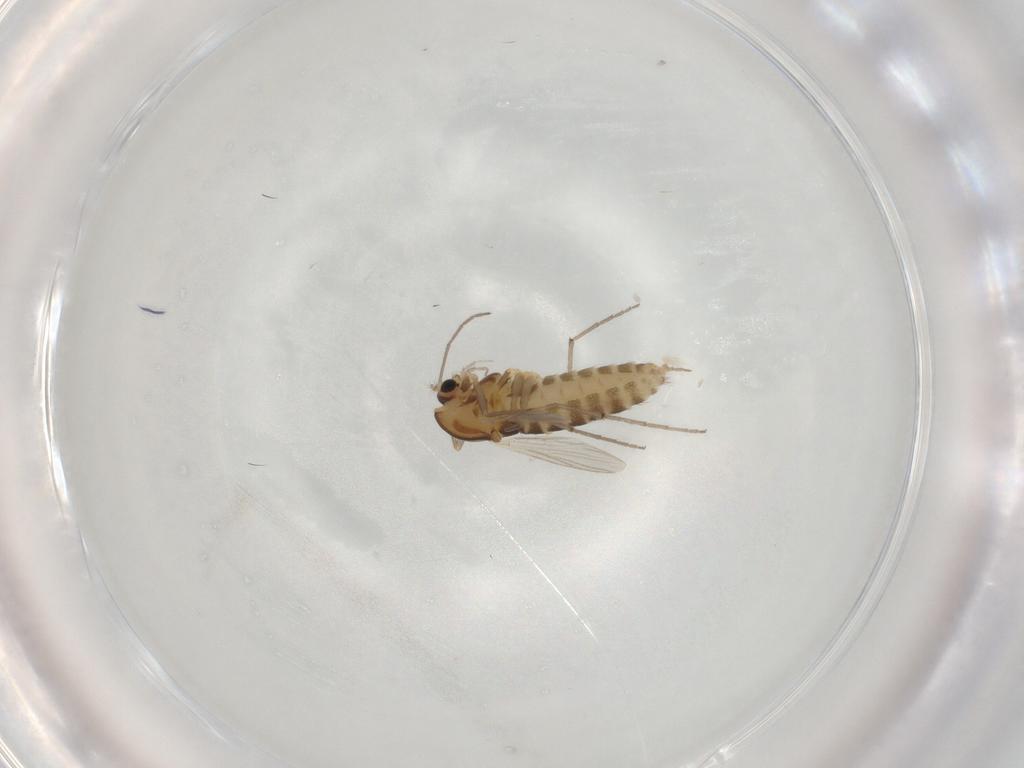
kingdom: Animalia
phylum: Arthropoda
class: Insecta
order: Diptera
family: Chironomidae
